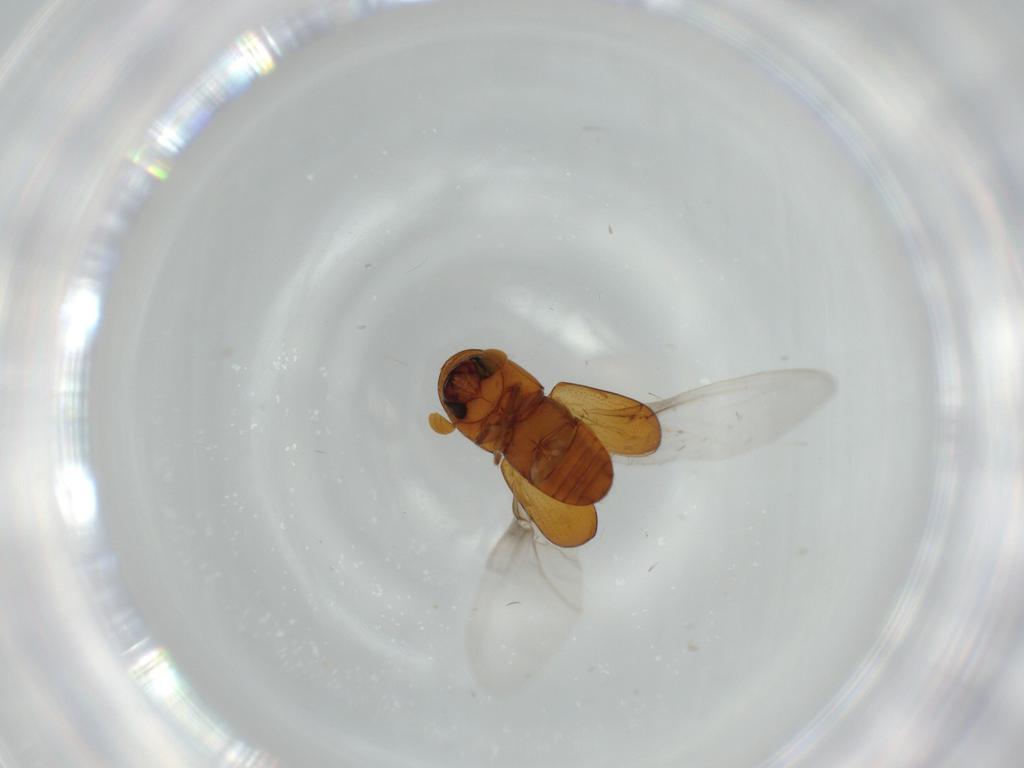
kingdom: Animalia
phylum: Arthropoda
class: Insecta
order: Coleoptera
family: Curculionidae
